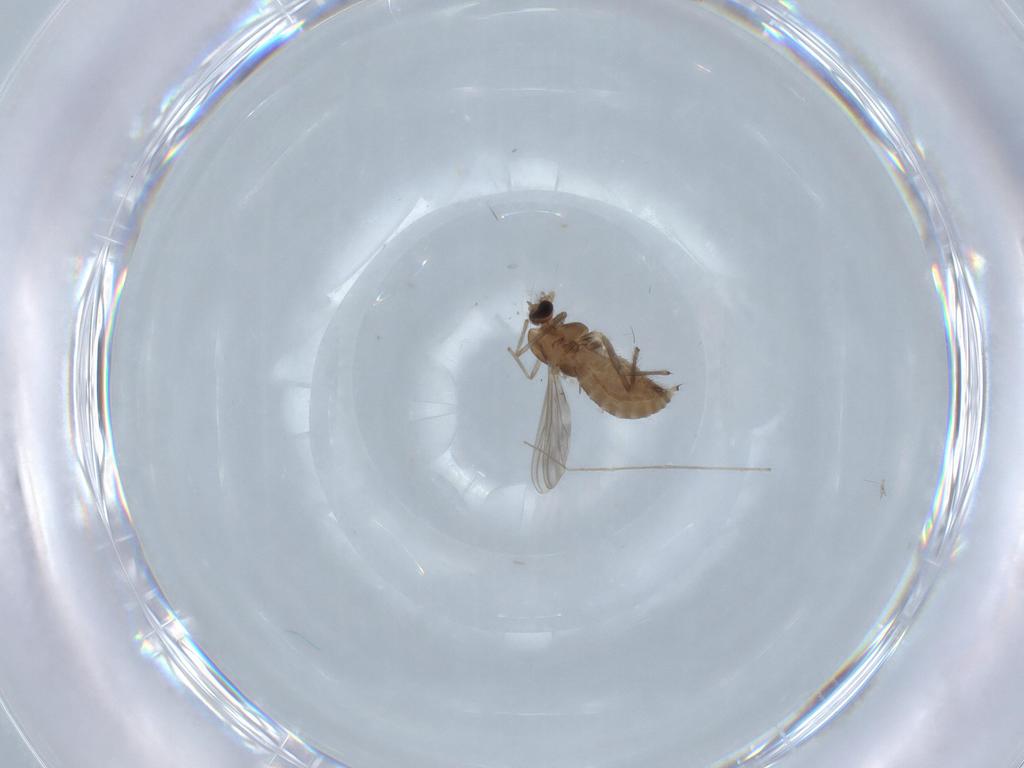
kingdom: Animalia
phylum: Arthropoda
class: Insecta
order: Diptera
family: Chironomidae
